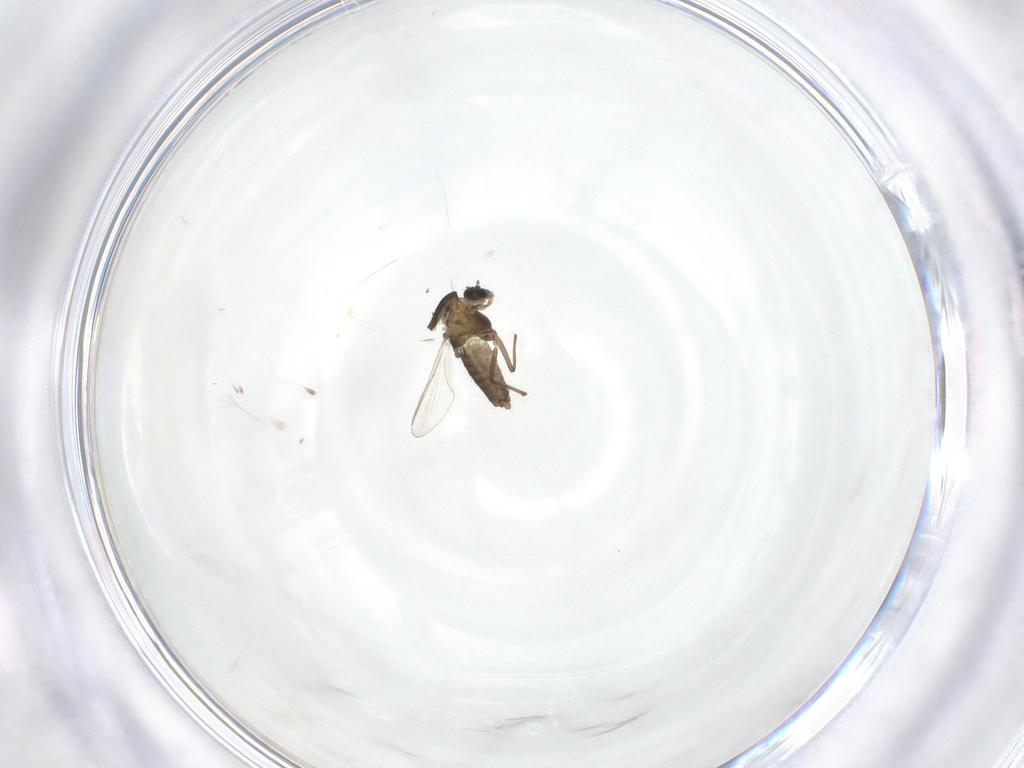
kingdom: Animalia
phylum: Arthropoda
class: Insecta
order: Diptera
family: Chironomidae
